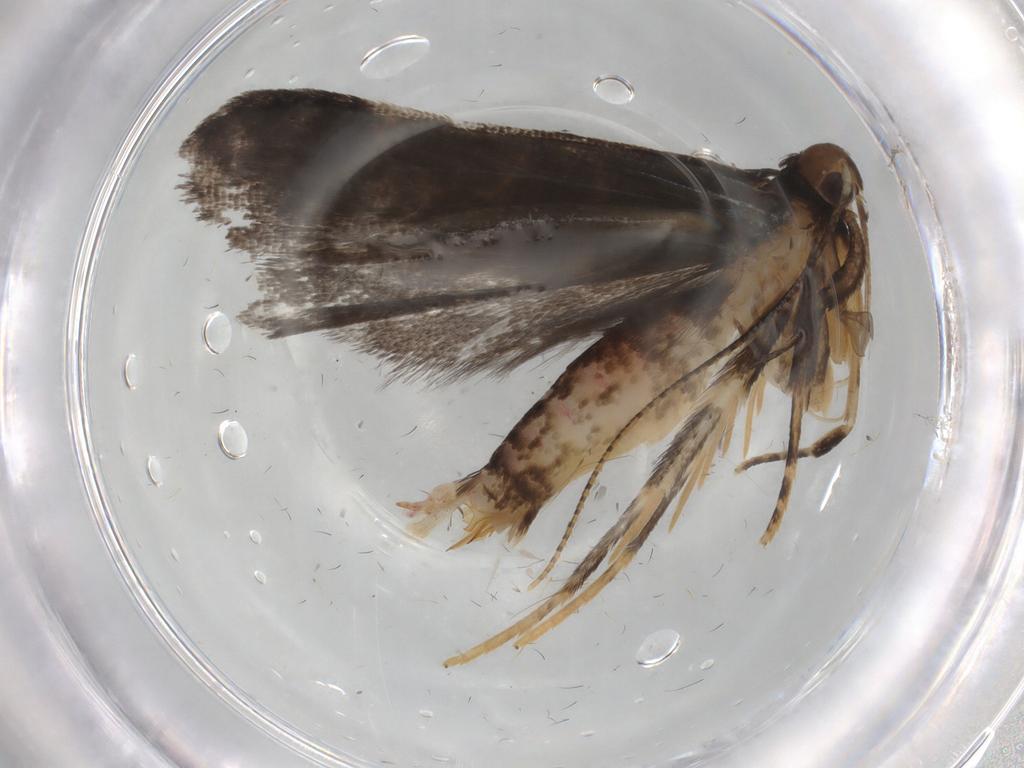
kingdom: Animalia
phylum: Arthropoda
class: Insecta
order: Lepidoptera
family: Gelechiidae
